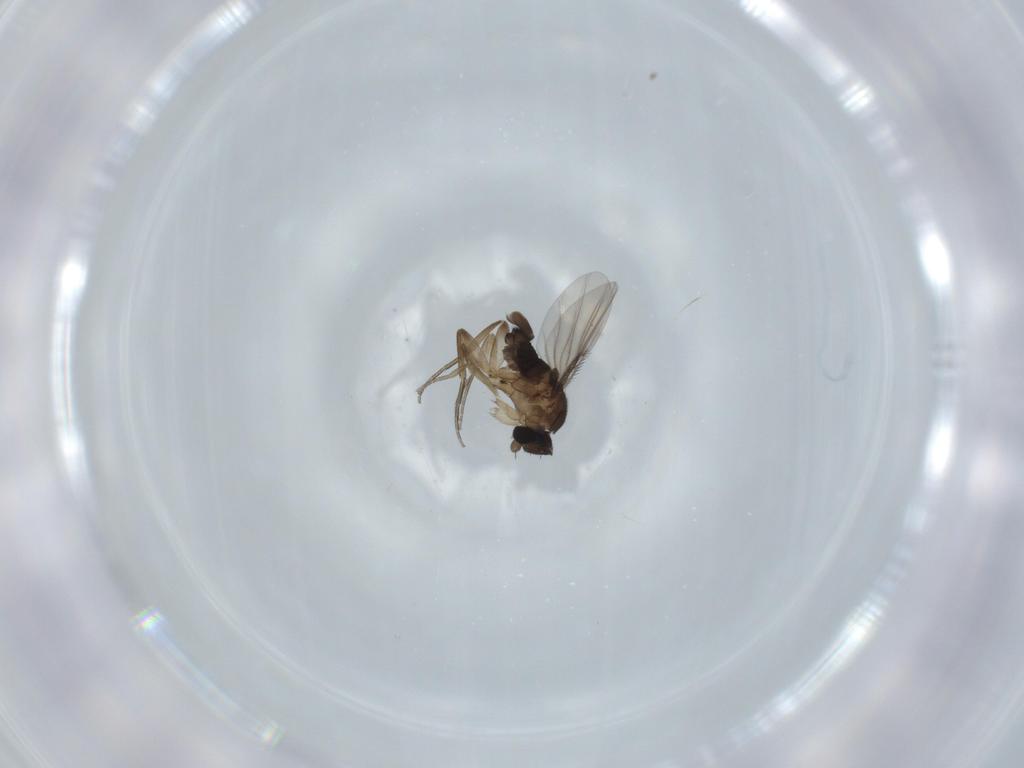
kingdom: Animalia
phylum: Arthropoda
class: Insecta
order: Diptera
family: Phoridae
